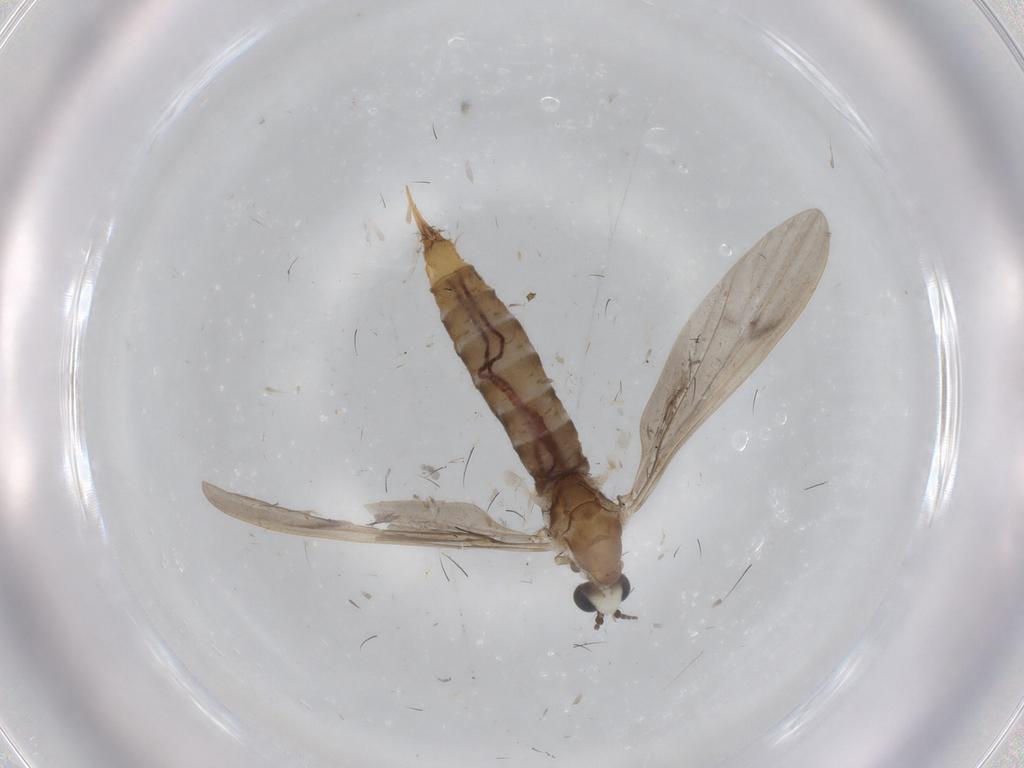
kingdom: Animalia
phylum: Arthropoda
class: Insecta
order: Diptera
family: Limoniidae
